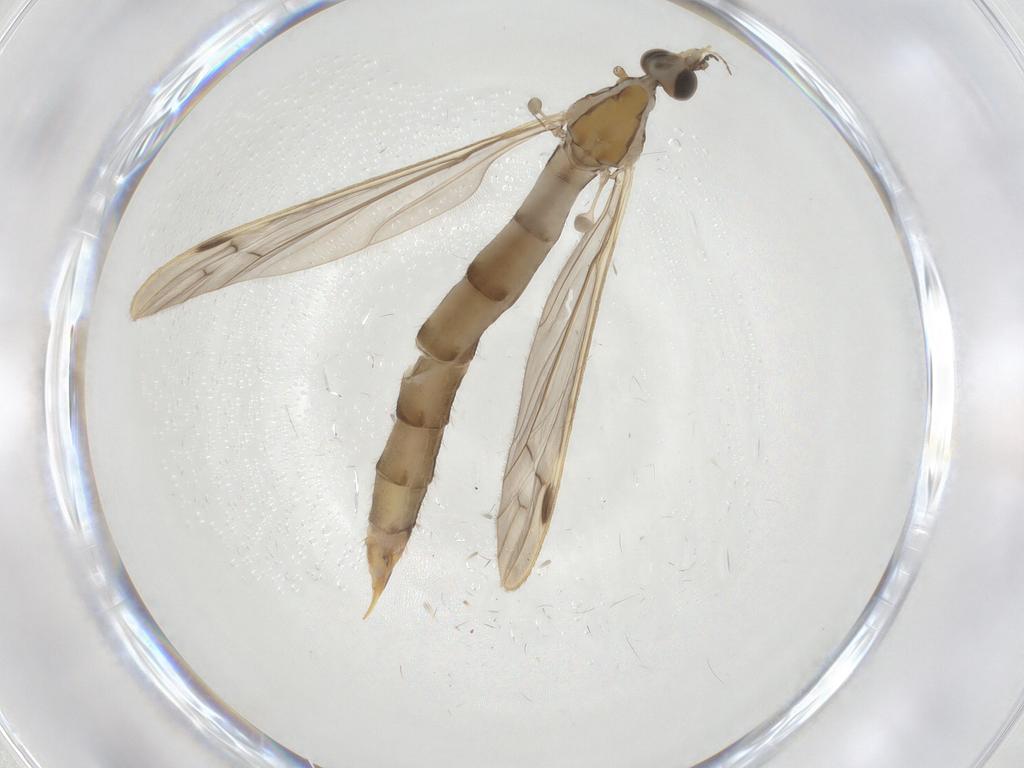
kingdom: Animalia
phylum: Arthropoda
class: Insecta
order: Diptera
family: Limoniidae
